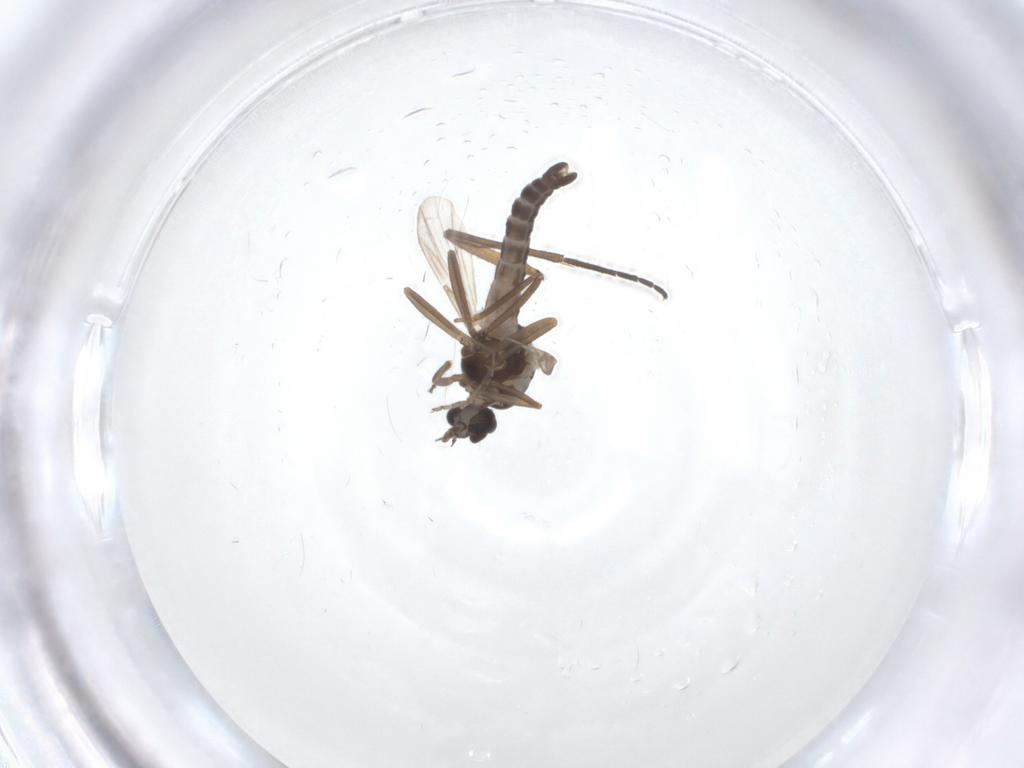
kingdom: Animalia
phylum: Arthropoda
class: Insecta
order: Diptera
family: Ceratopogonidae
